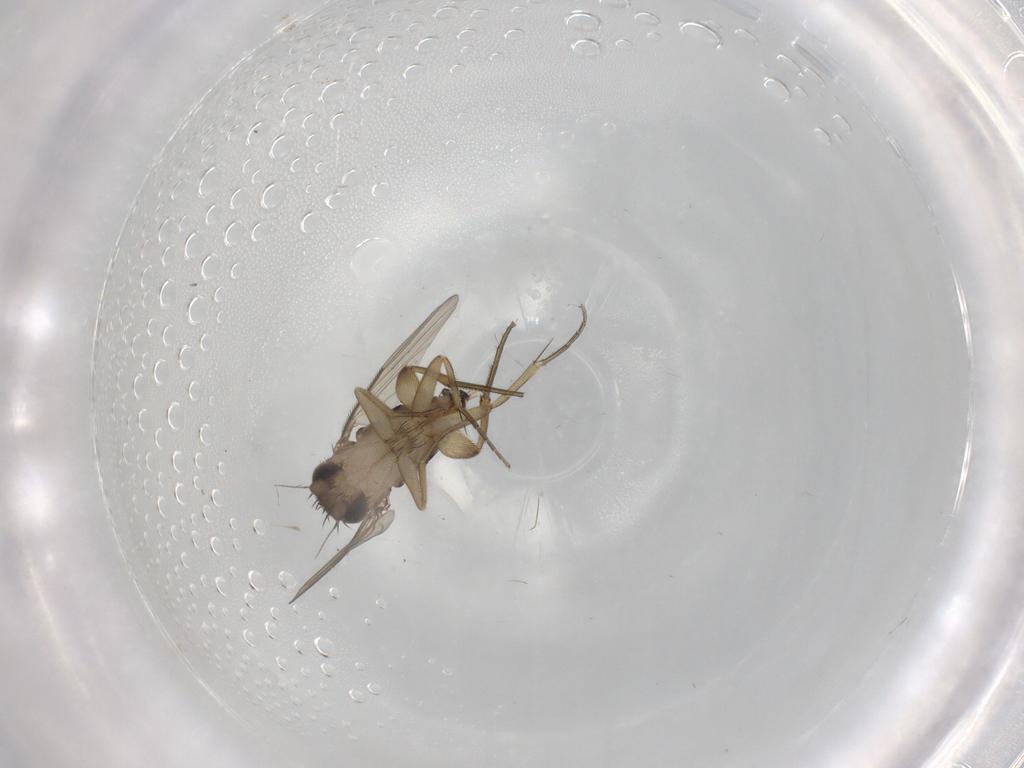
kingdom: Animalia
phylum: Arthropoda
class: Insecta
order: Diptera
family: Phoridae
